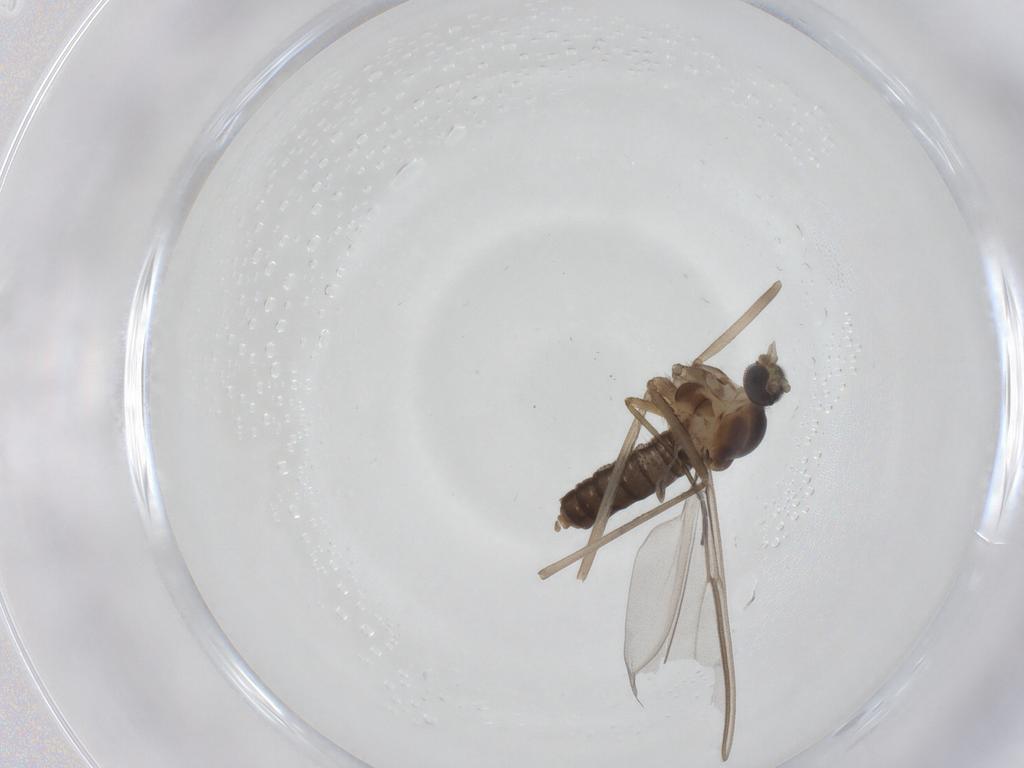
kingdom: Animalia
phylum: Arthropoda
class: Insecta
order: Diptera
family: Cecidomyiidae
